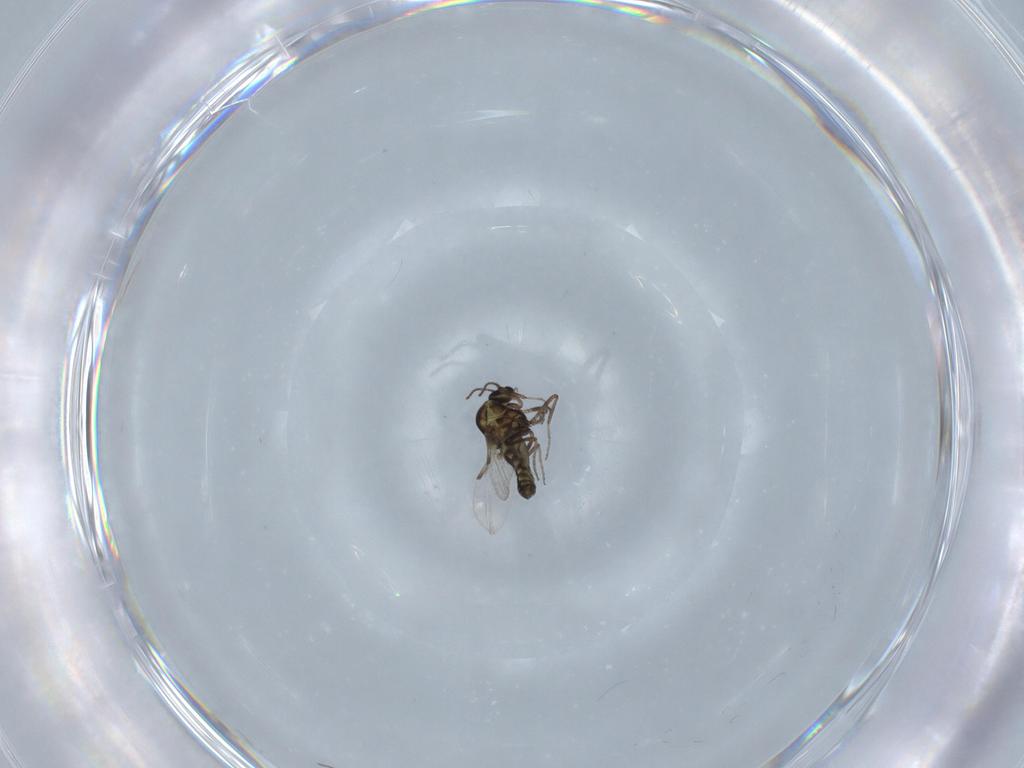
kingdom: Animalia
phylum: Arthropoda
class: Insecta
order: Diptera
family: Ceratopogonidae
